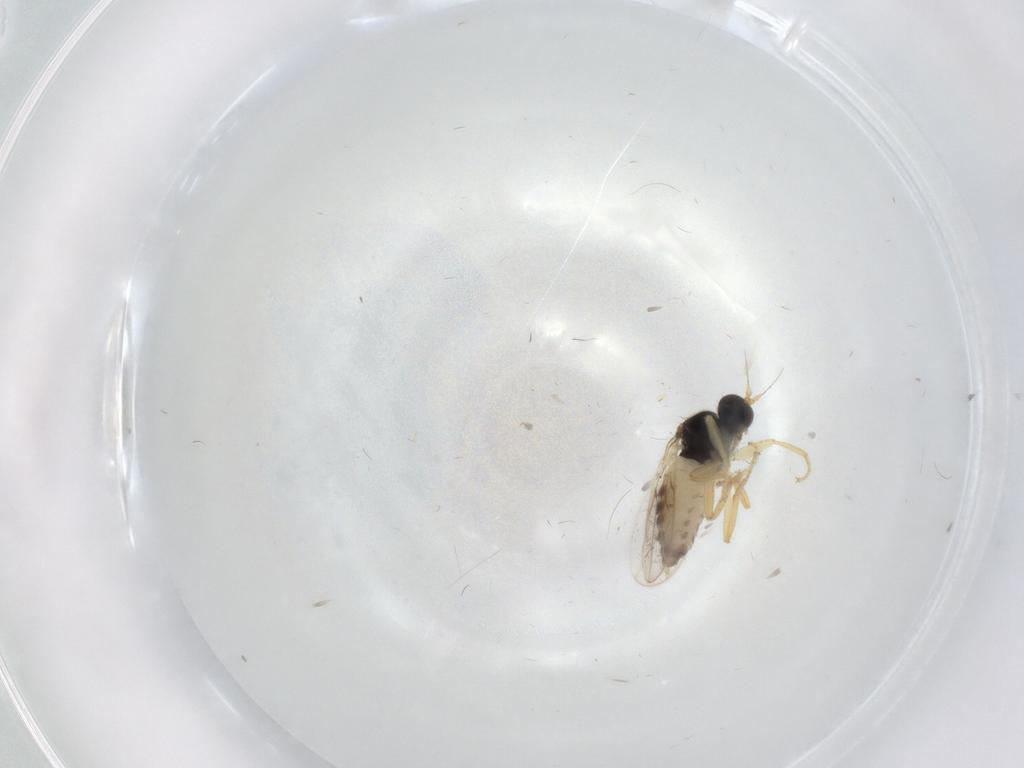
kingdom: Animalia
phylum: Arthropoda
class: Insecta
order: Diptera
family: Hybotidae
